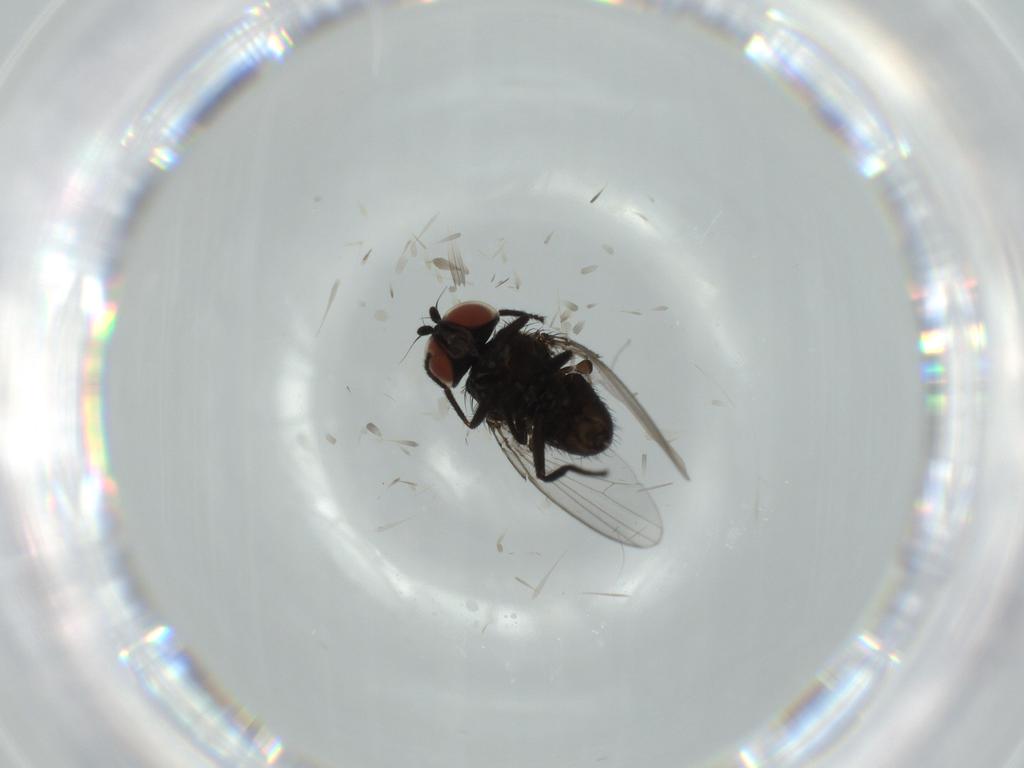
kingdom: Animalia
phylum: Arthropoda
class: Insecta
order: Diptera
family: Milichiidae
